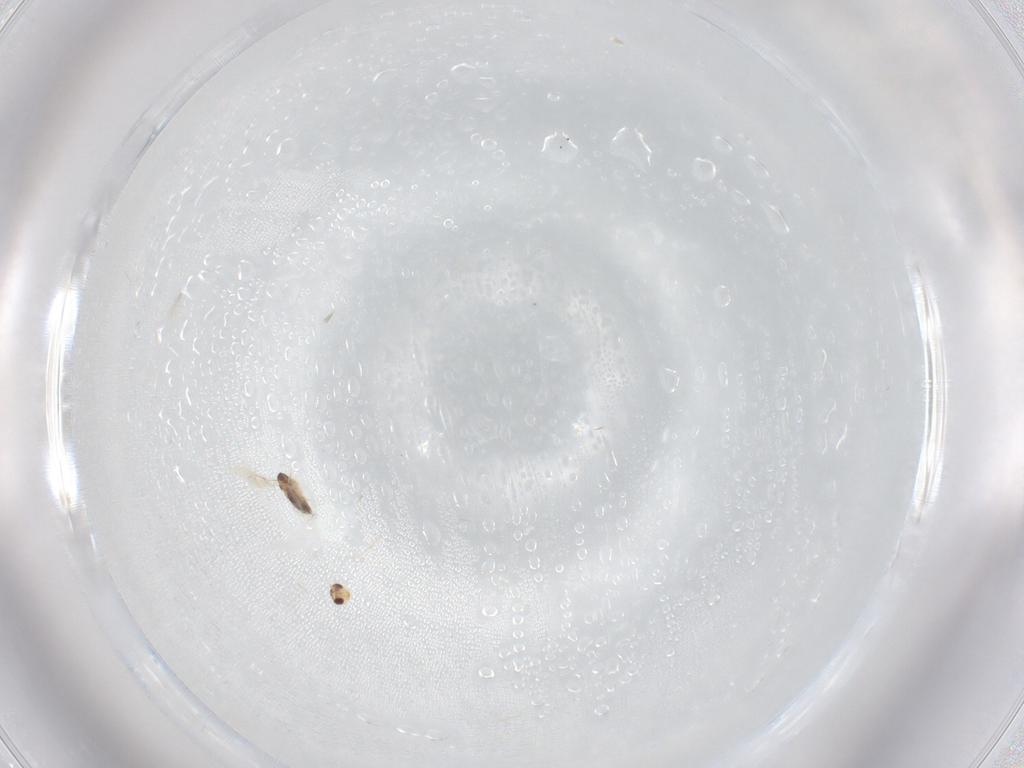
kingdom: Animalia
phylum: Arthropoda
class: Insecta
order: Hymenoptera
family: Aphelinidae
